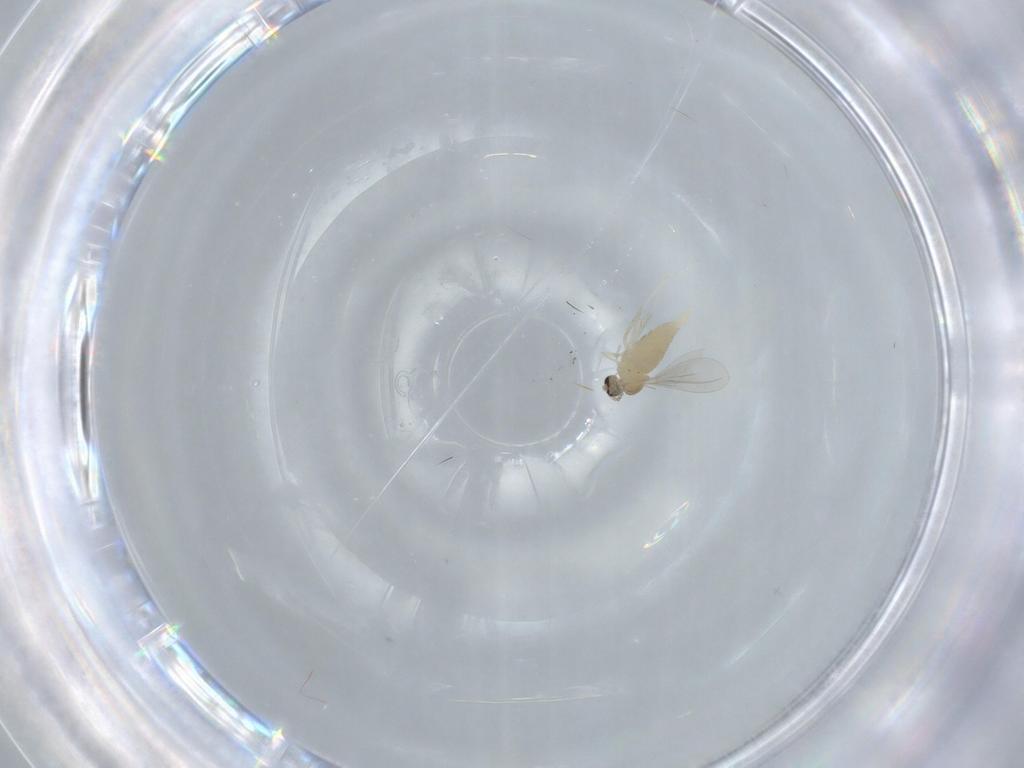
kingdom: Animalia
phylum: Arthropoda
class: Insecta
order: Diptera
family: Cecidomyiidae
